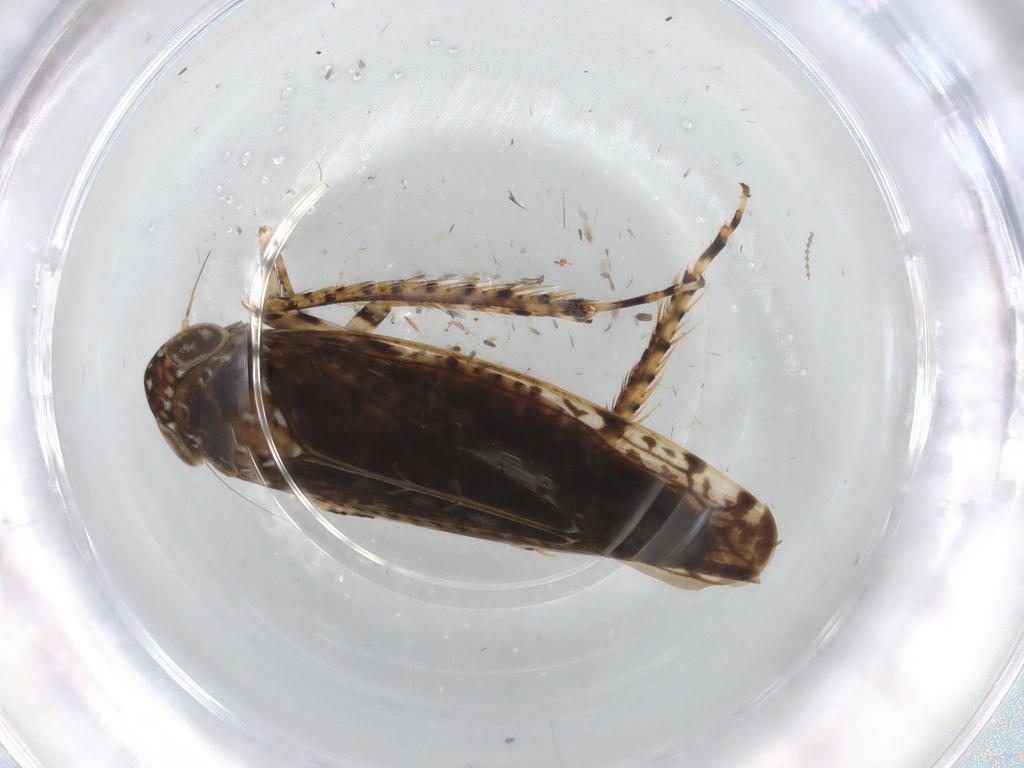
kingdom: Animalia
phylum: Arthropoda
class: Insecta
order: Hemiptera
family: Cicadellidae
